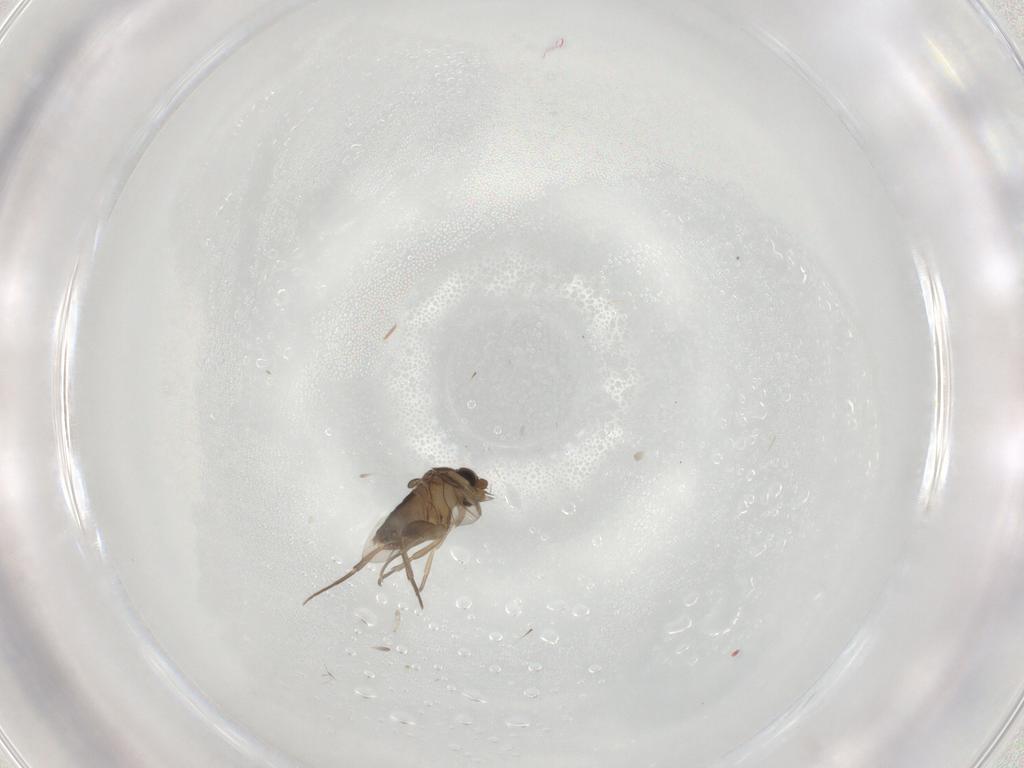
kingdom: Animalia
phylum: Arthropoda
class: Insecta
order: Diptera
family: Phoridae
